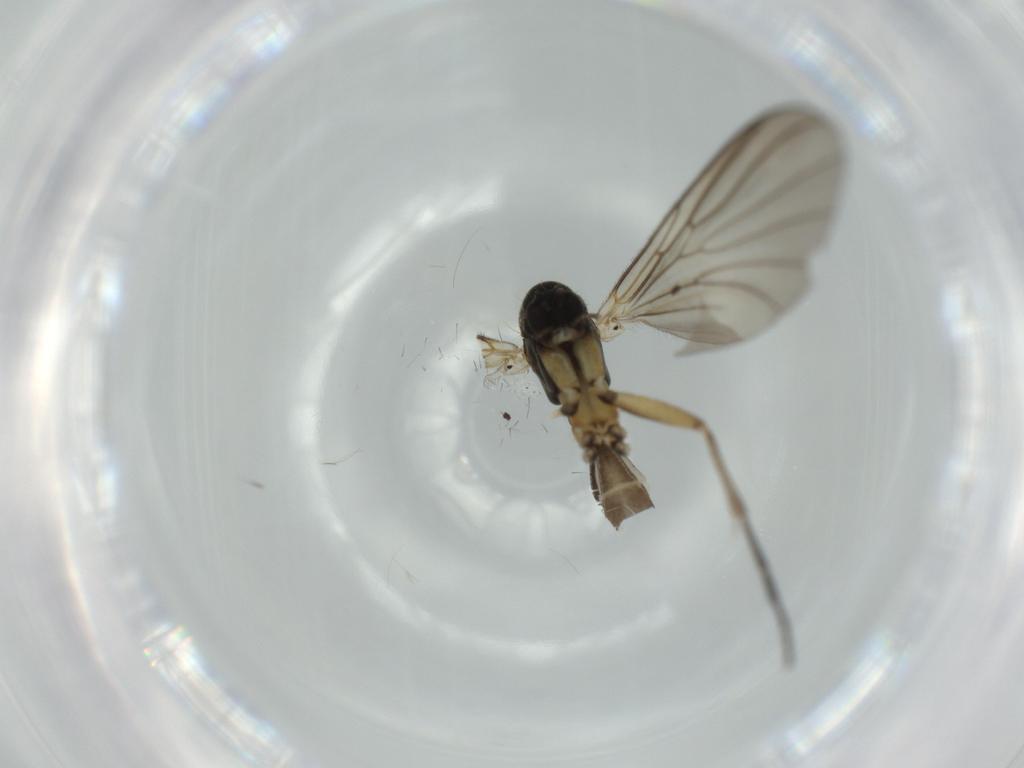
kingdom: Animalia
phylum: Arthropoda
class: Insecta
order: Diptera
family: Mycetophilidae
